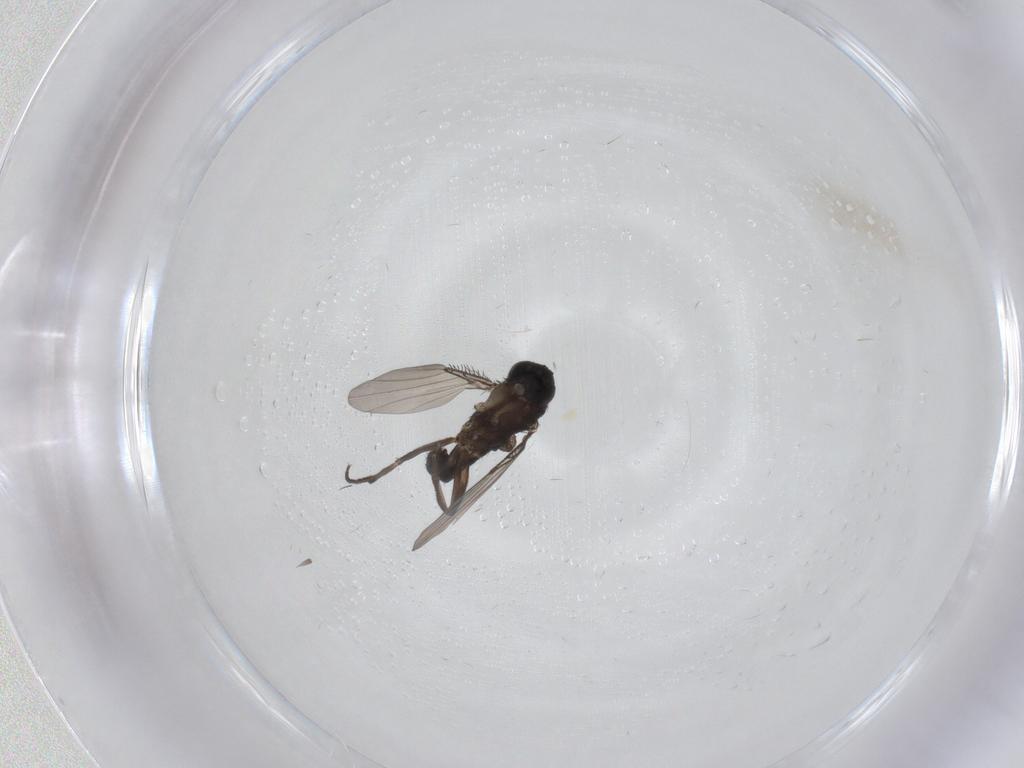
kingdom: Animalia
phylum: Arthropoda
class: Insecta
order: Diptera
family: Phoridae
